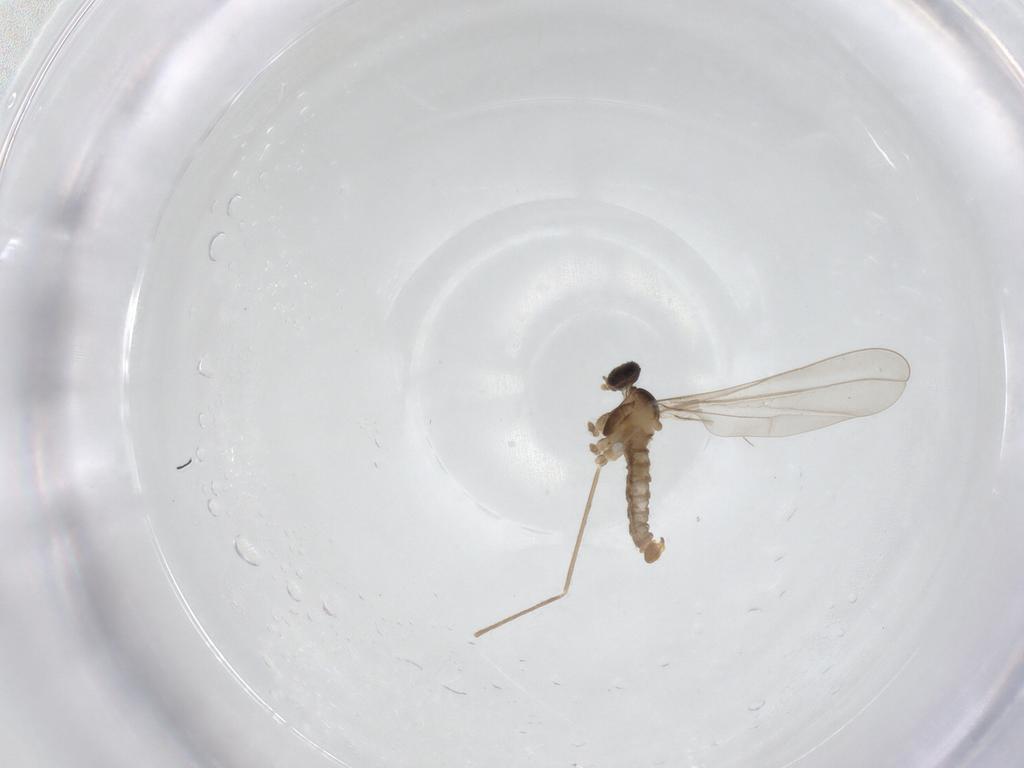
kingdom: Animalia
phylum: Arthropoda
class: Insecta
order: Diptera
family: Cecidomyiidae
